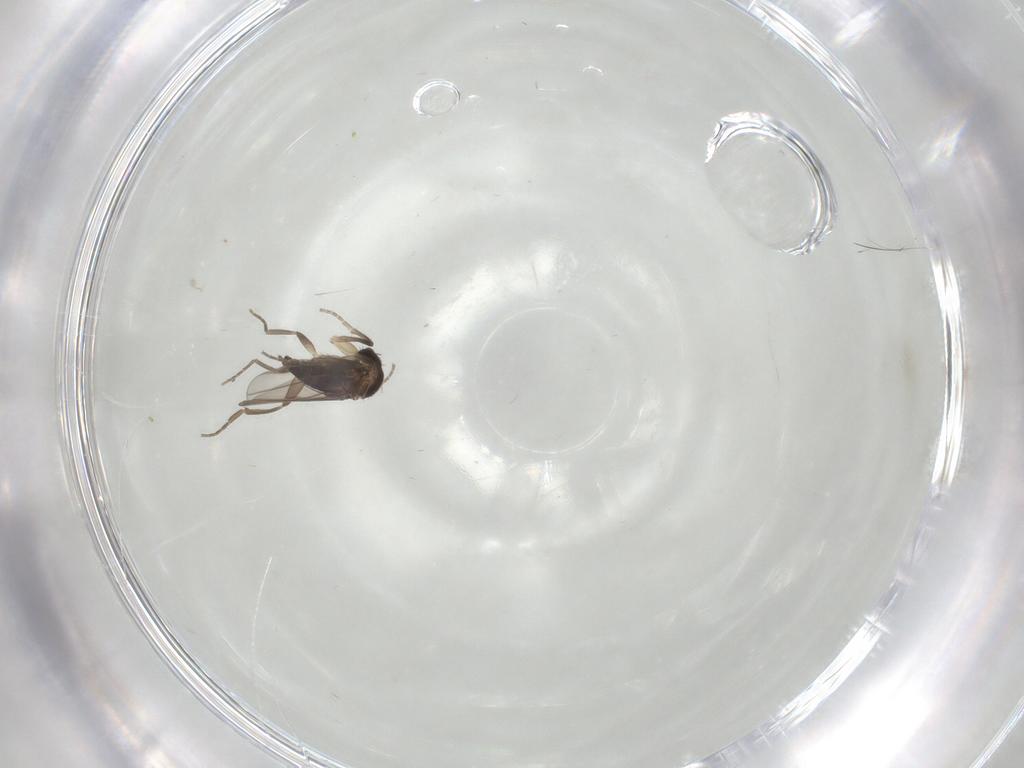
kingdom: Animalia
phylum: Arthropoda
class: Insecta
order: Diptera
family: Phoridae
